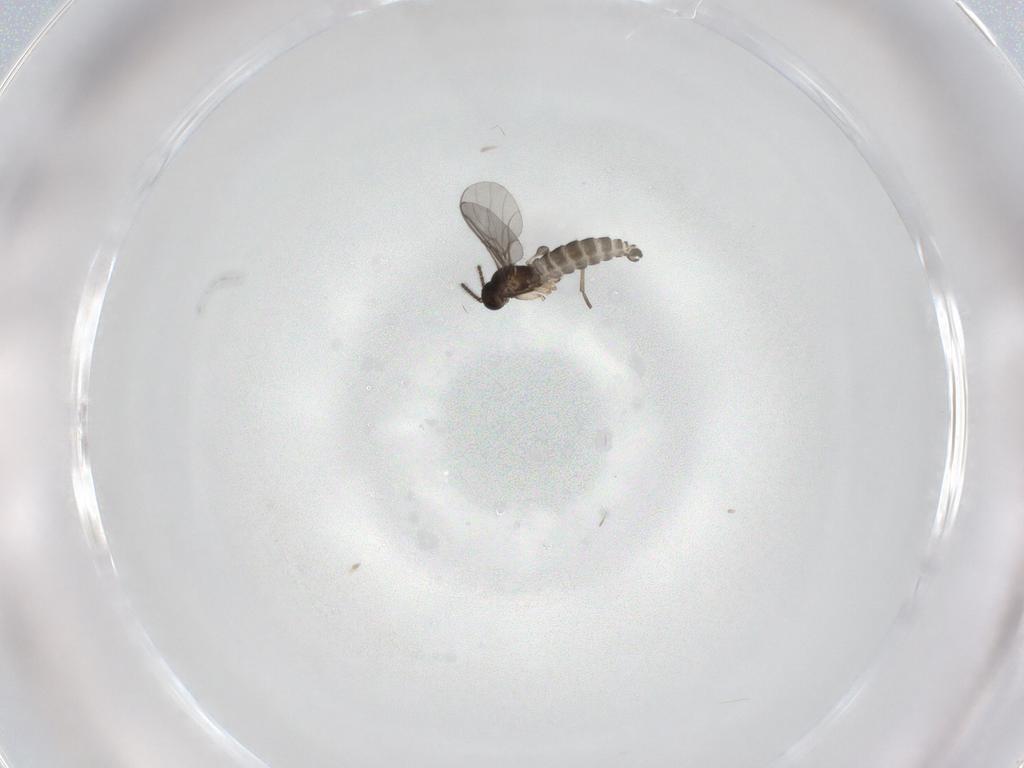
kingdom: Animalia
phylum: Arthropoda
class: Insecta
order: Diptera
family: Sciaridae
